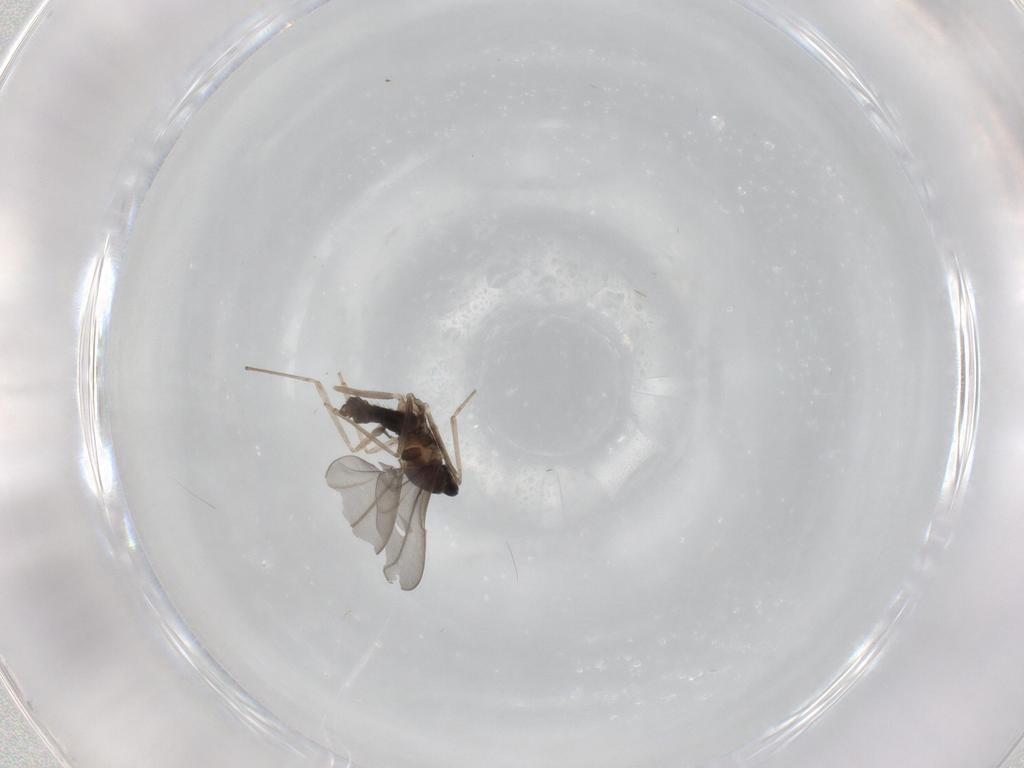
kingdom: Animalia
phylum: Arthropoda
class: Insecta
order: Diptera
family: Cecidomyiidae
